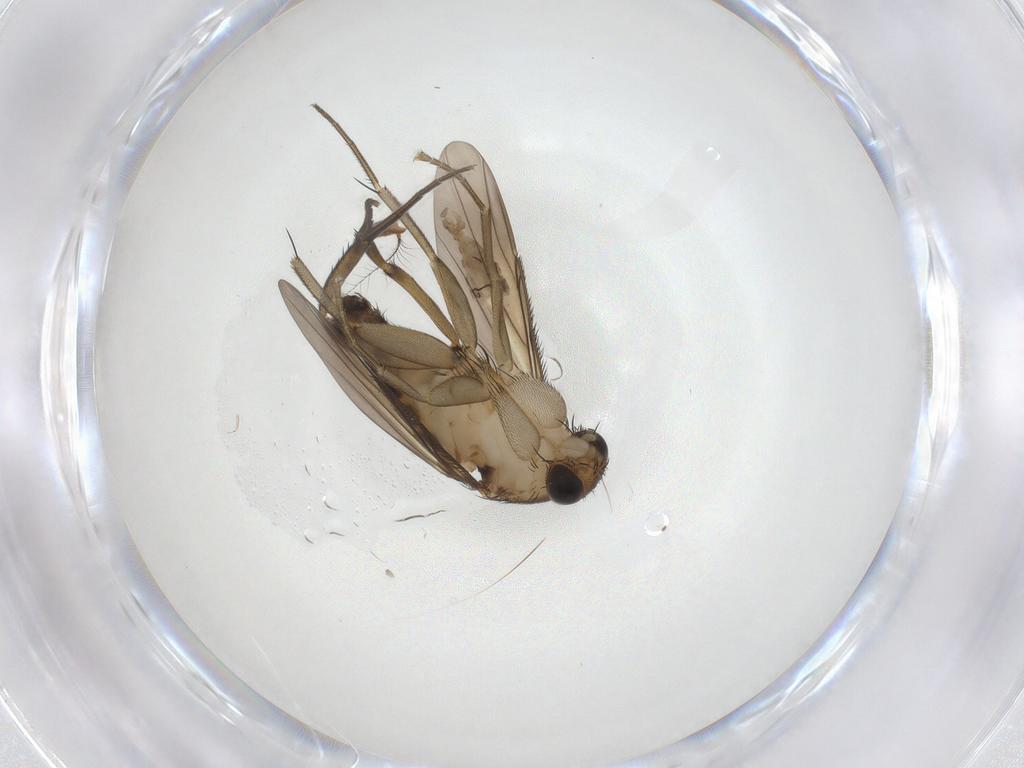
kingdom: Animalia
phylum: Arthropoda
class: Insecta
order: Diptera
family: Psychodidae
